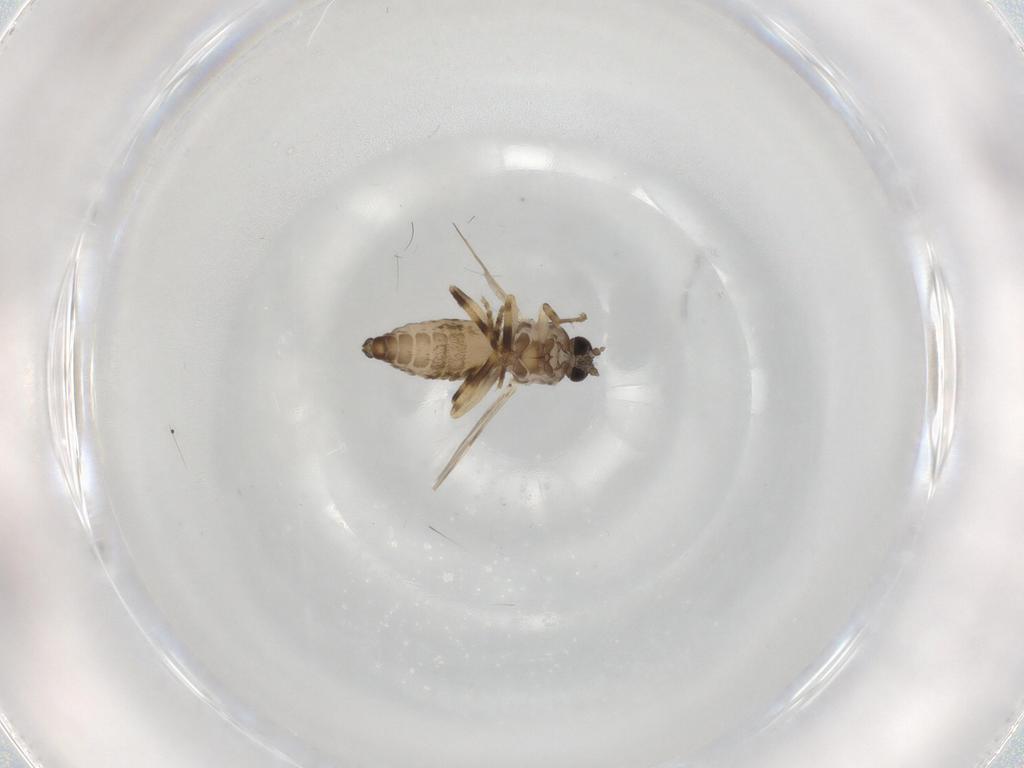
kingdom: Animalia
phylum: Arthropoda
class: Insecta
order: Diptera
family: Ceratopogonidae
